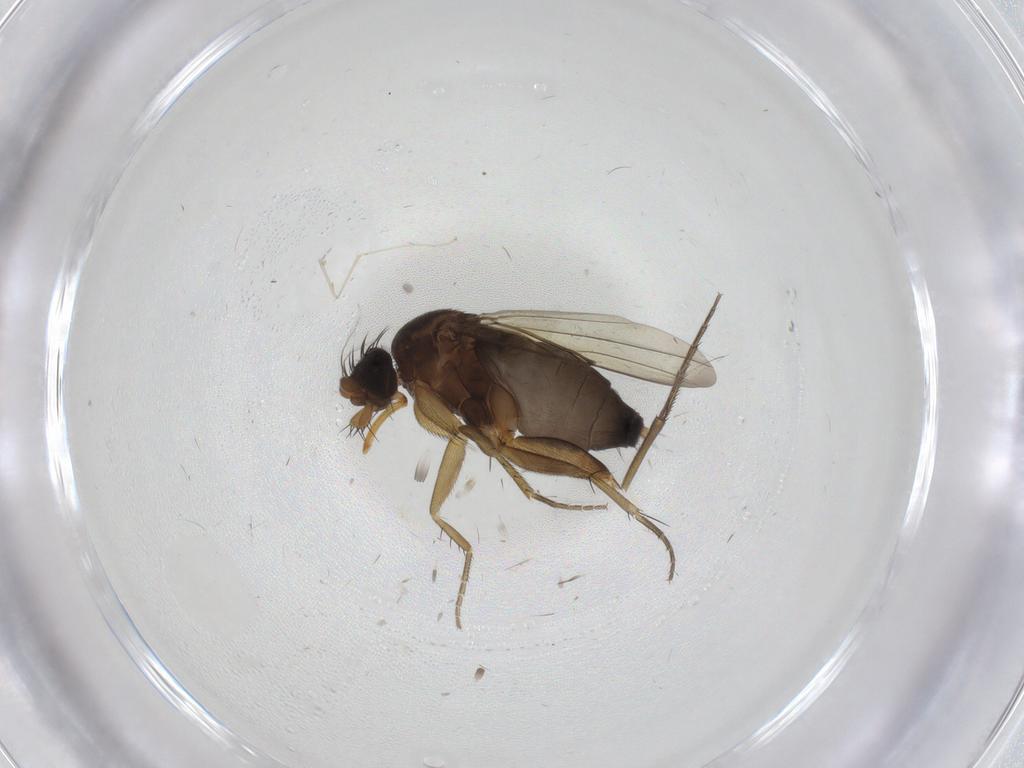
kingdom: Animalia
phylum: Arthropoda
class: Insecta
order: Diptera
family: Phoridae
